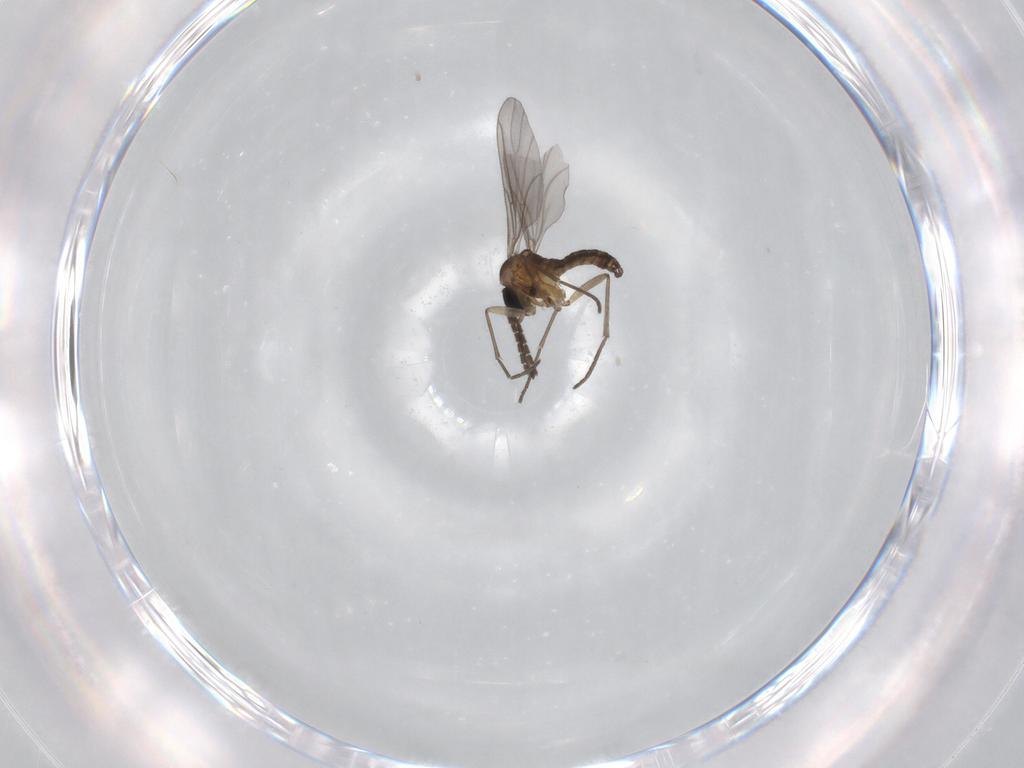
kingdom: Animalia
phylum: Arthropoda
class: Insecta
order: Diptera
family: Sciaridae
